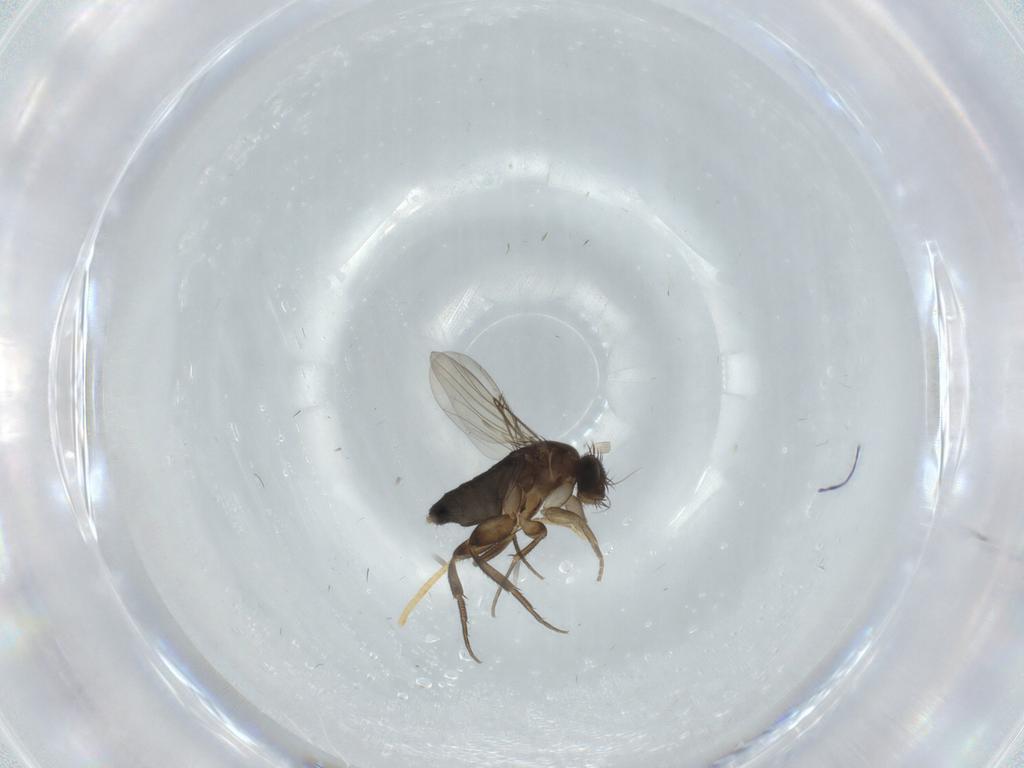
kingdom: Animalia
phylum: Arthropoda
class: Insecta
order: Diptera
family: Phoridae
